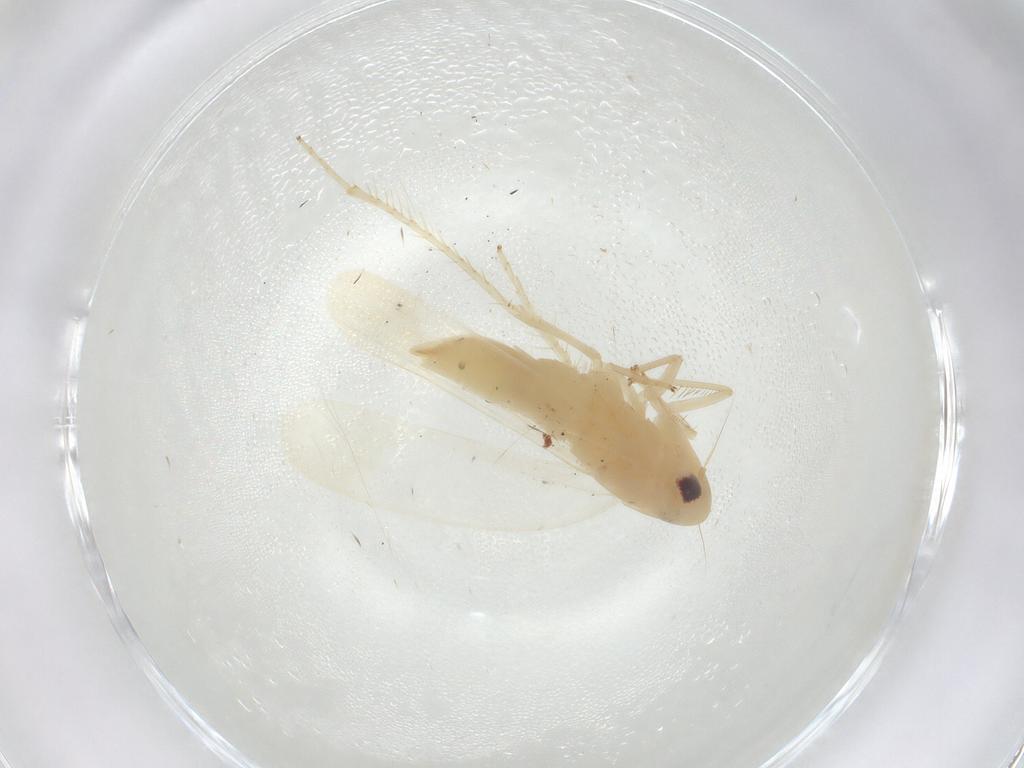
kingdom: Animalia
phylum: Arthropoda
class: Insecta
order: Hemiptera
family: Cicadellidae
